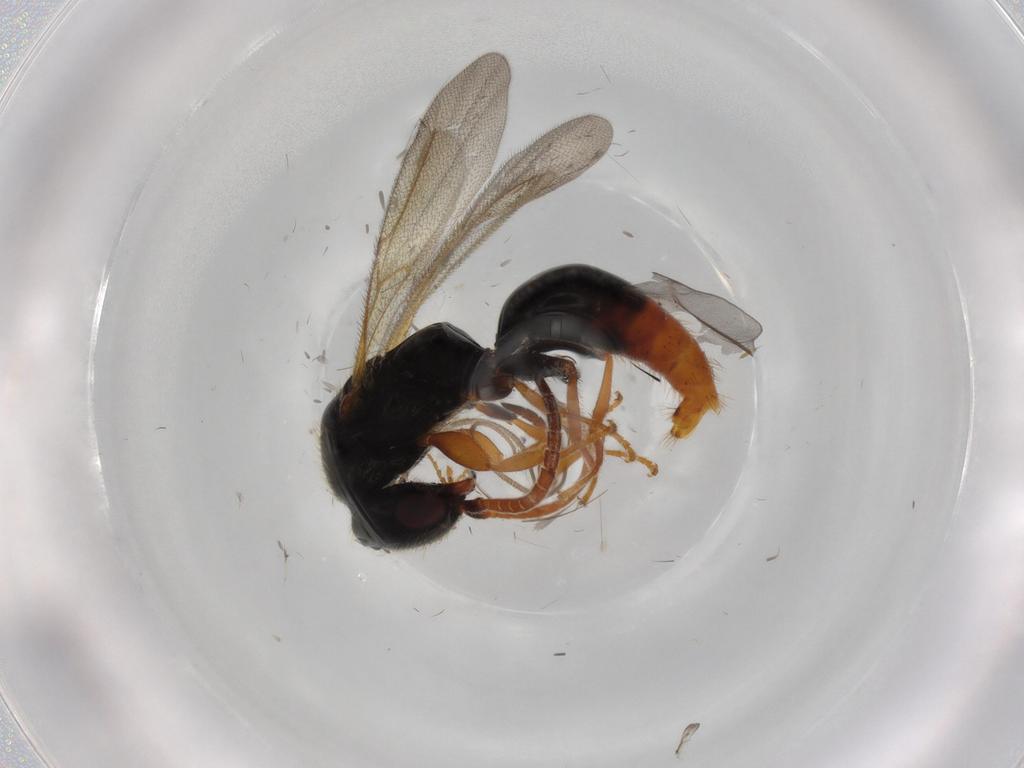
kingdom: Animalia
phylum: Arthropoda
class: Insecta
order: Hymenoptera
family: Bethylidae
